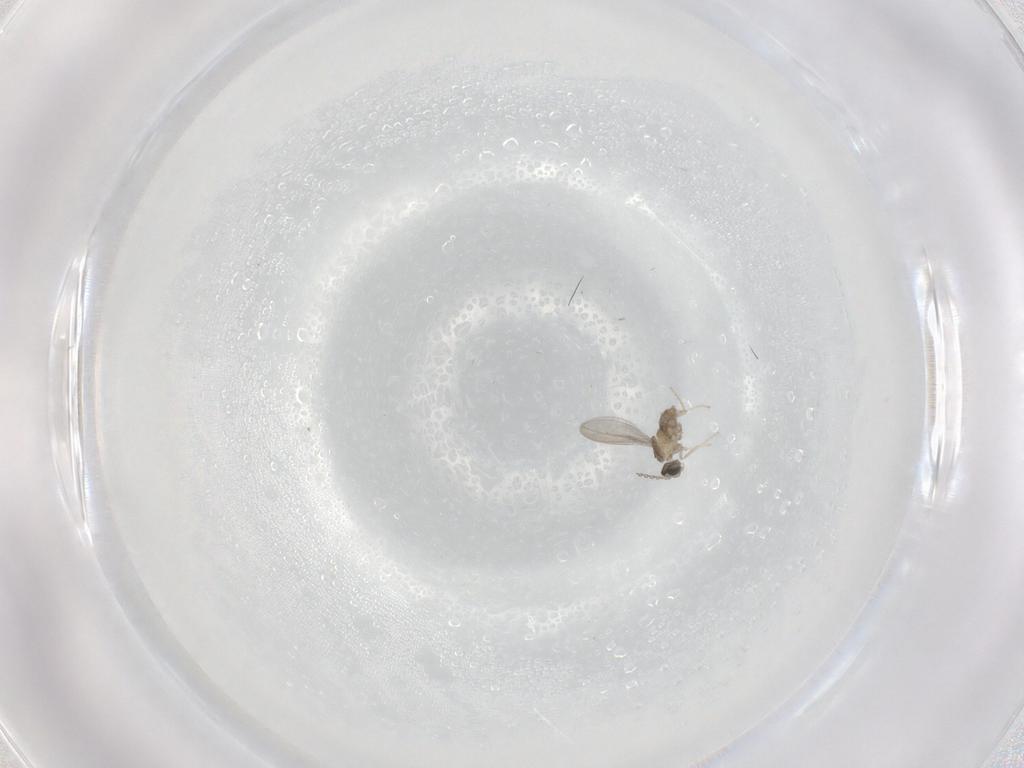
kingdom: Animalia
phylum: Arthropoda
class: Insecta
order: Diptera
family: Cecidomyiidae
